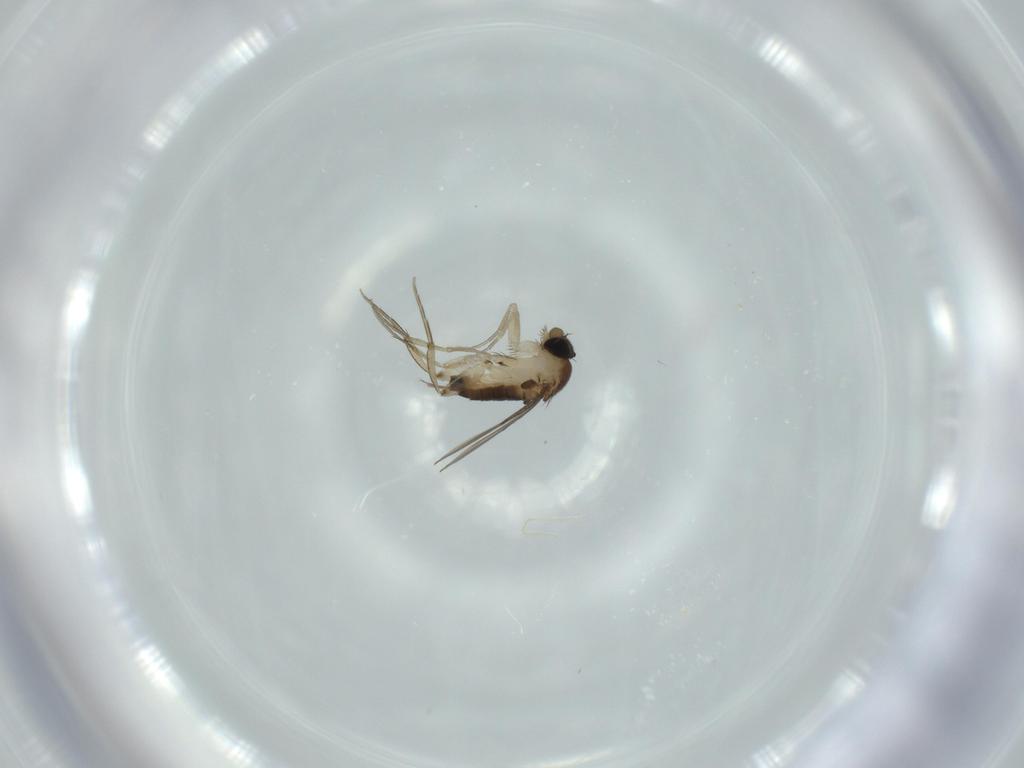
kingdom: Animalia
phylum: Arthropoda
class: Insecta
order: Diptera
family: Phoridae
